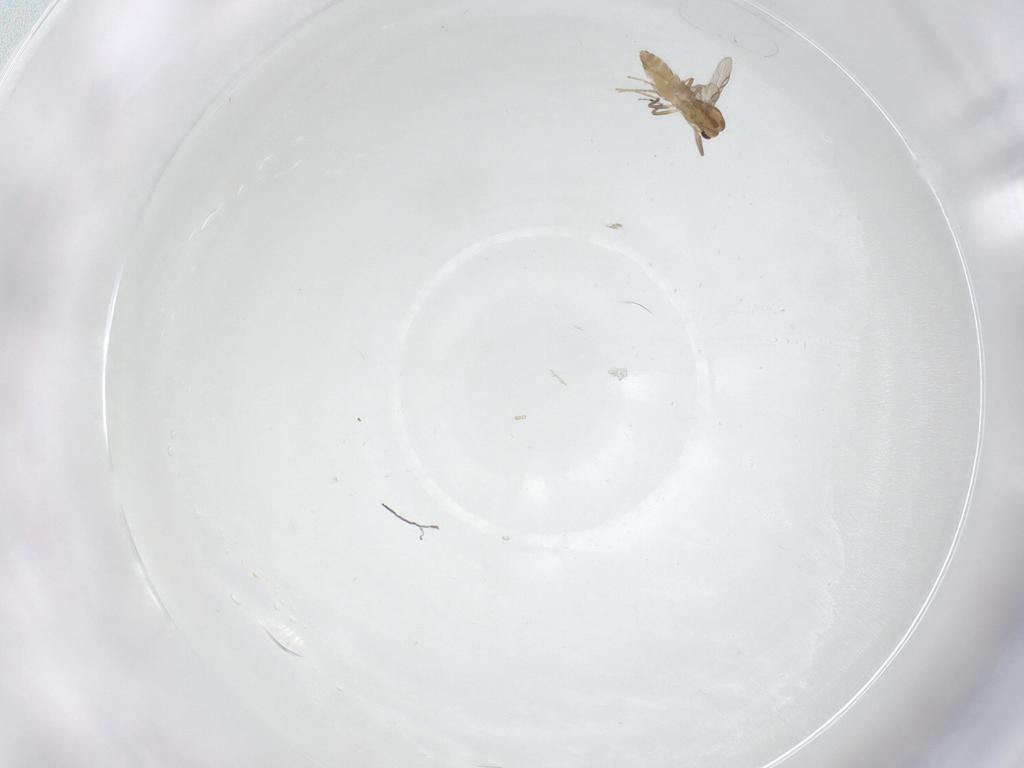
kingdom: Animalia
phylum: Arthropoda
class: Insecta
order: Diptera
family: Chironomidae
